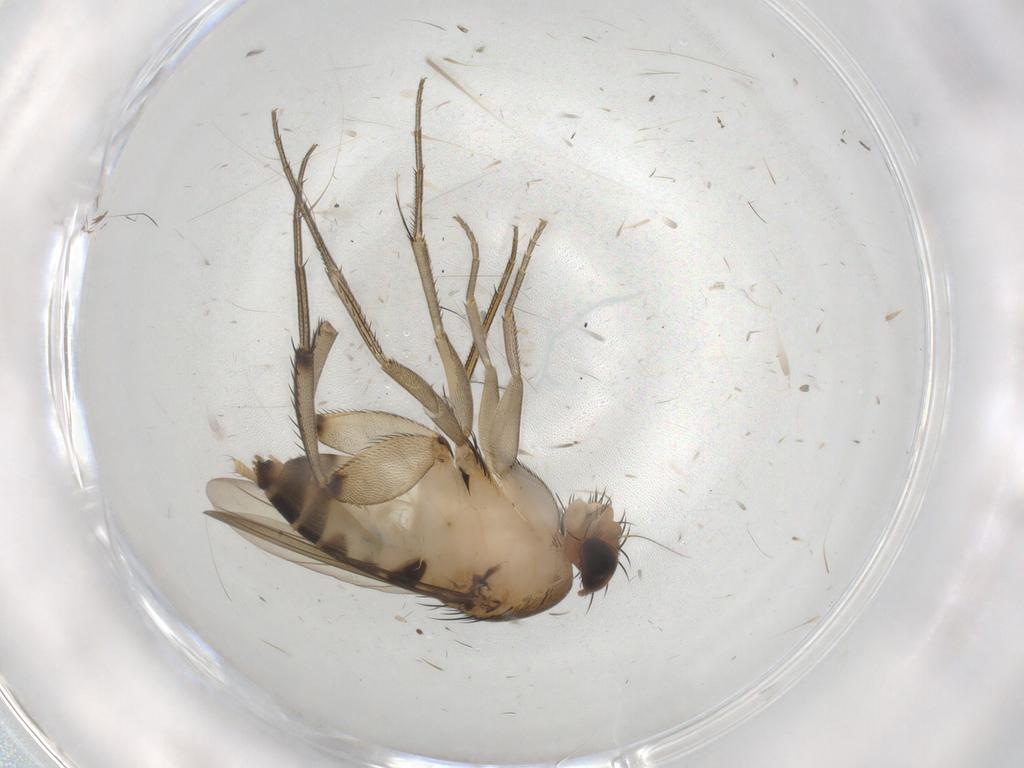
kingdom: Animalia
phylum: Arthropoda
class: Insecta
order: Diptera
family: Phoridae
